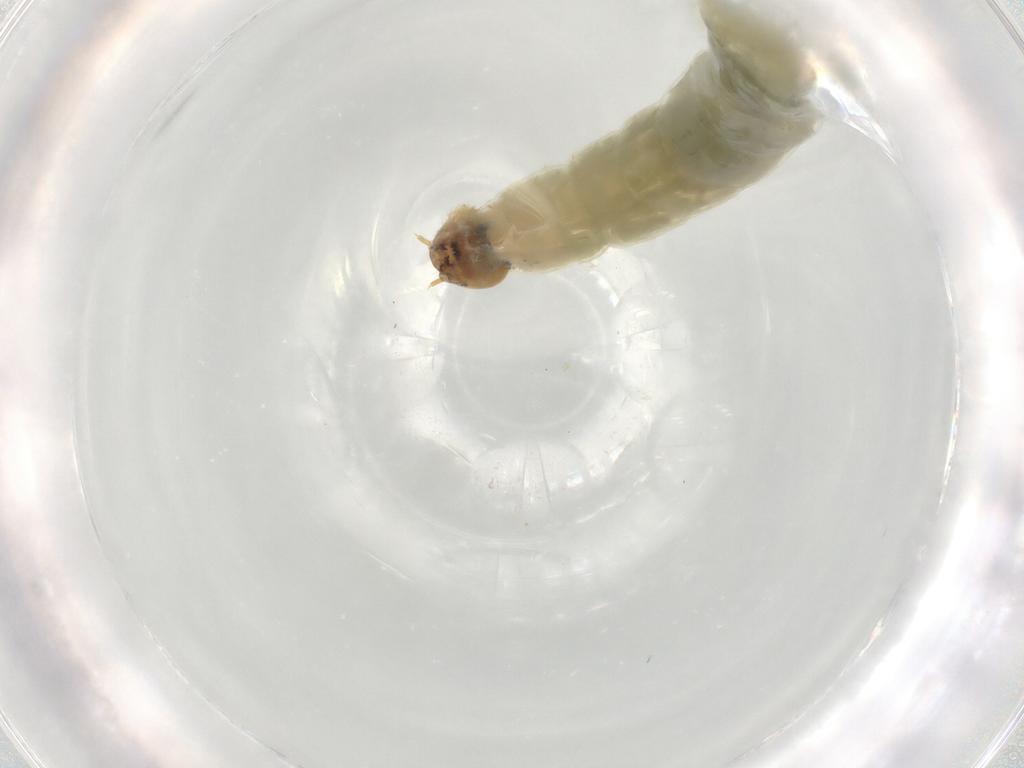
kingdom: Animalia
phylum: Arthropoda
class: Insecta
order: Diptera
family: Chironomidae
